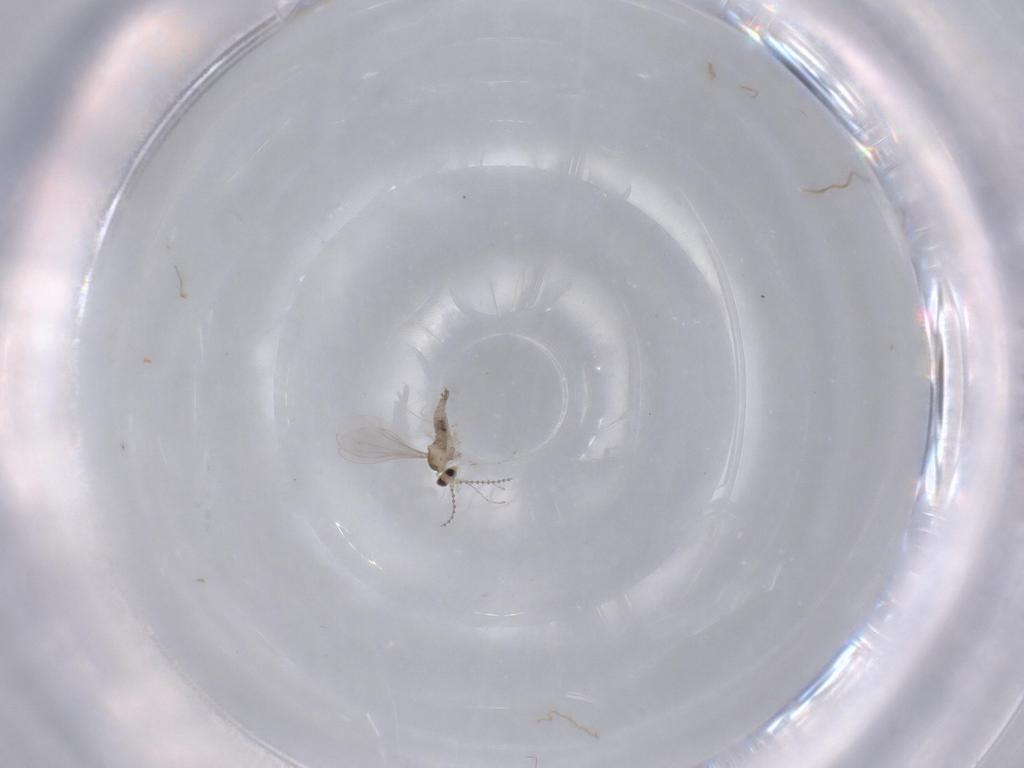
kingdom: Animalia
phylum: Arthropoda
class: Insecta
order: Diptera
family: Cecidomyiidae
